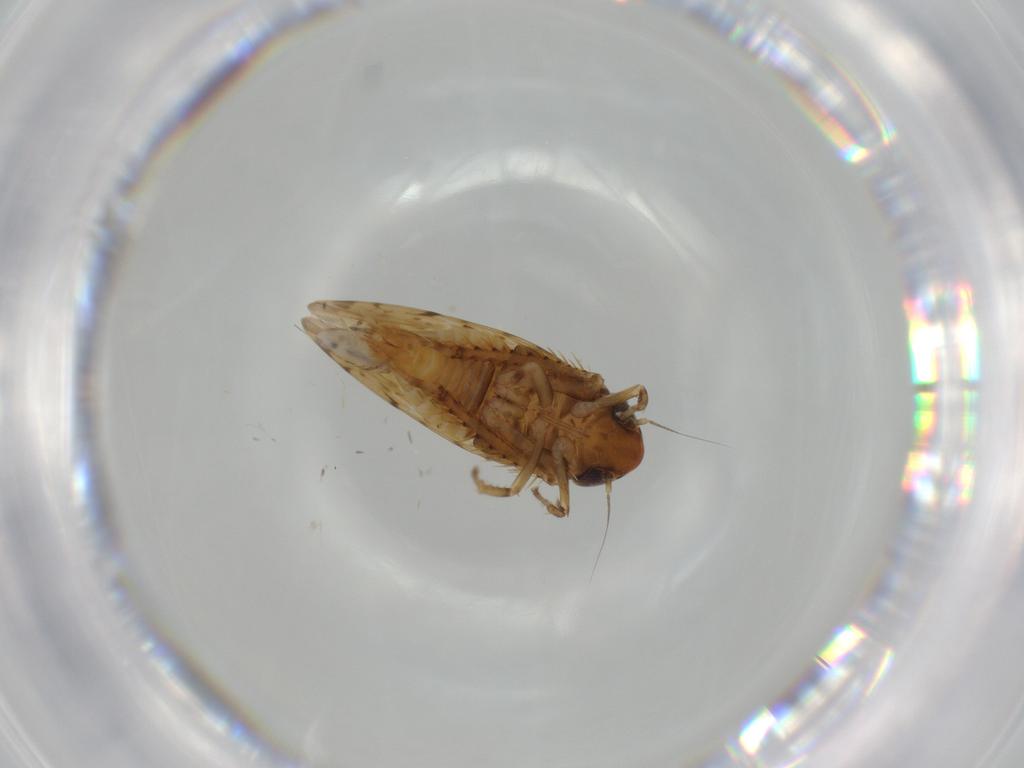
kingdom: Animalia
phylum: Arthropoda
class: Insecta
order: Hemiptera
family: Cicadellidae
